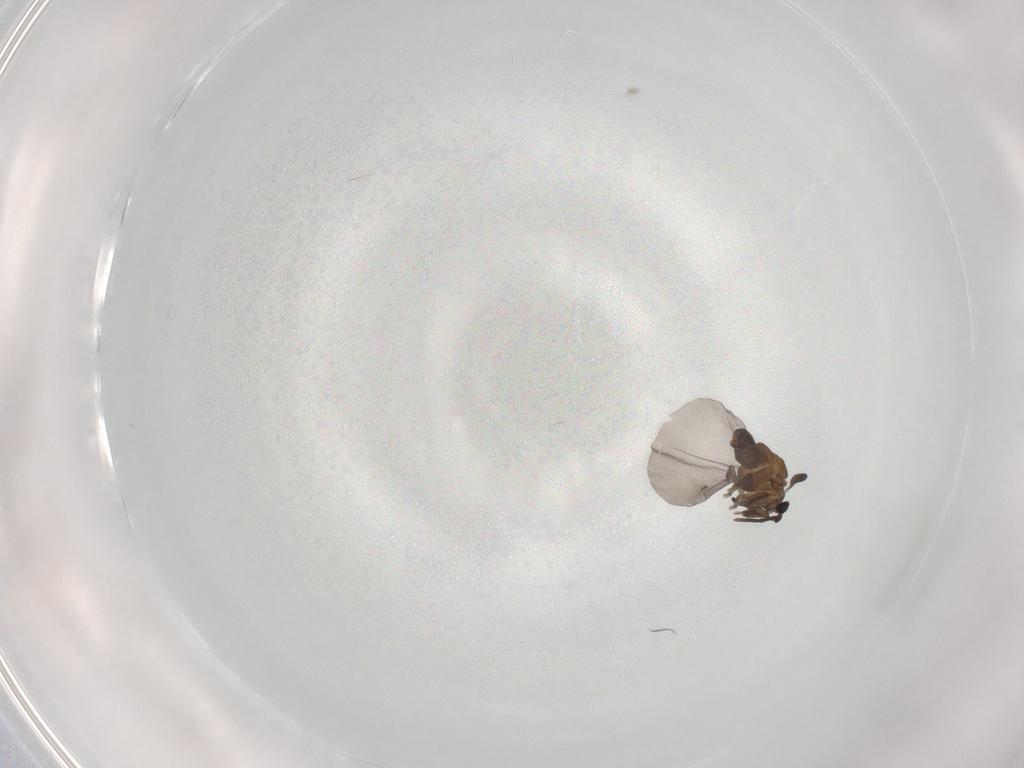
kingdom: Animalia
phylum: Arthropoda
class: Insecta
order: Strepsiptera
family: Myrmecolacidae
